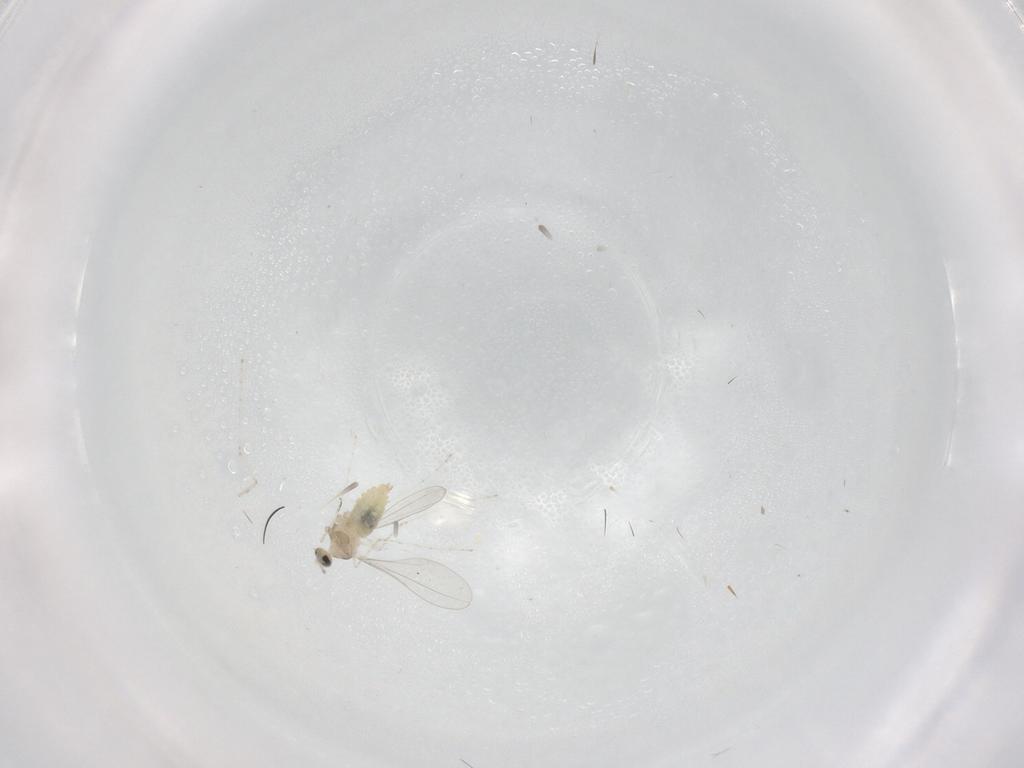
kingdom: Animalia
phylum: Arthropoda
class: Insecta
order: Diptera
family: Cecidomyiidae
